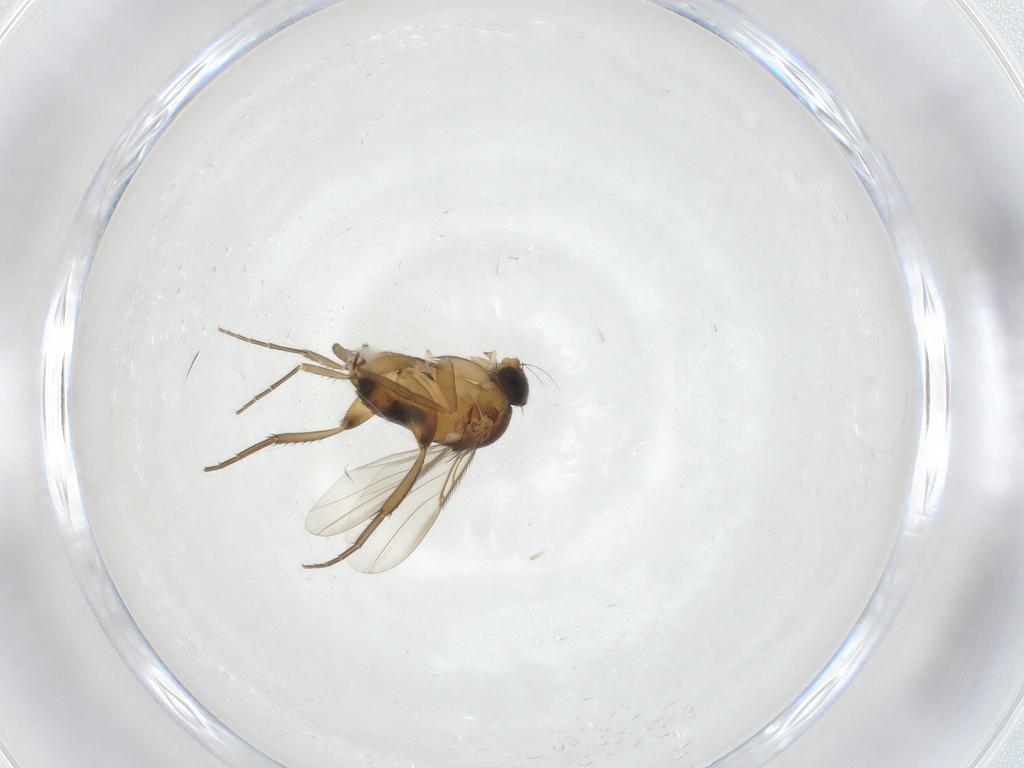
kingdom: Animalia
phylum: Arthropoda
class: Insecta
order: Diptera
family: Phoridae
